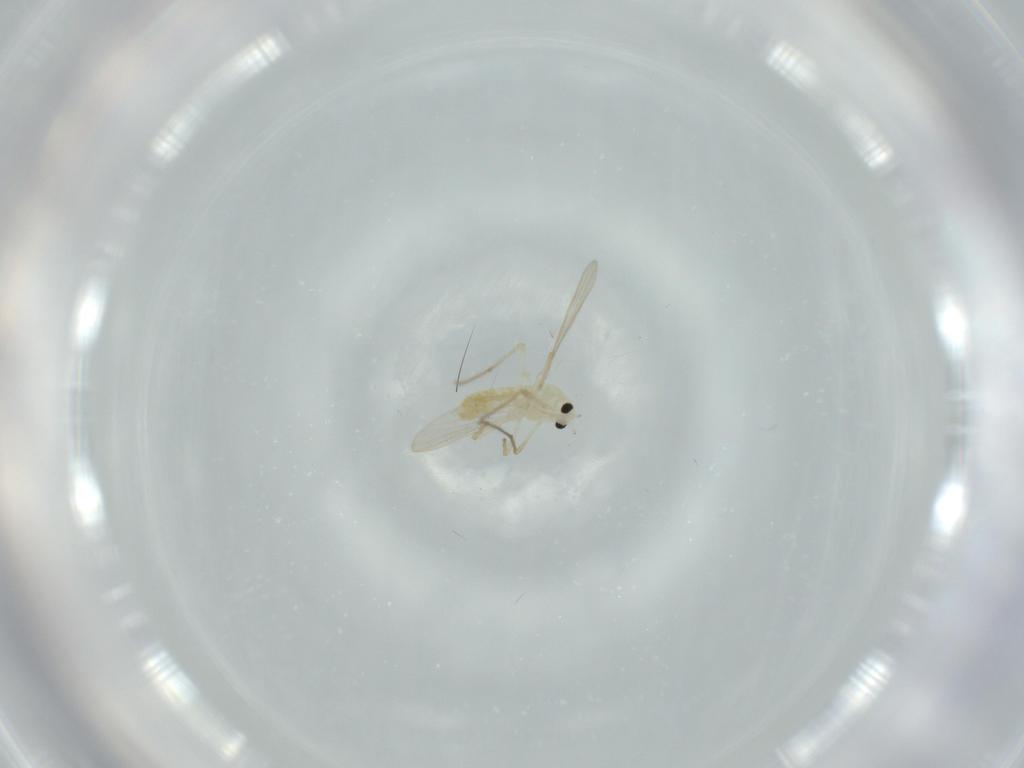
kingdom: Animalia
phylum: Arthropoda
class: Insecta
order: Diptera
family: Chironomidae
